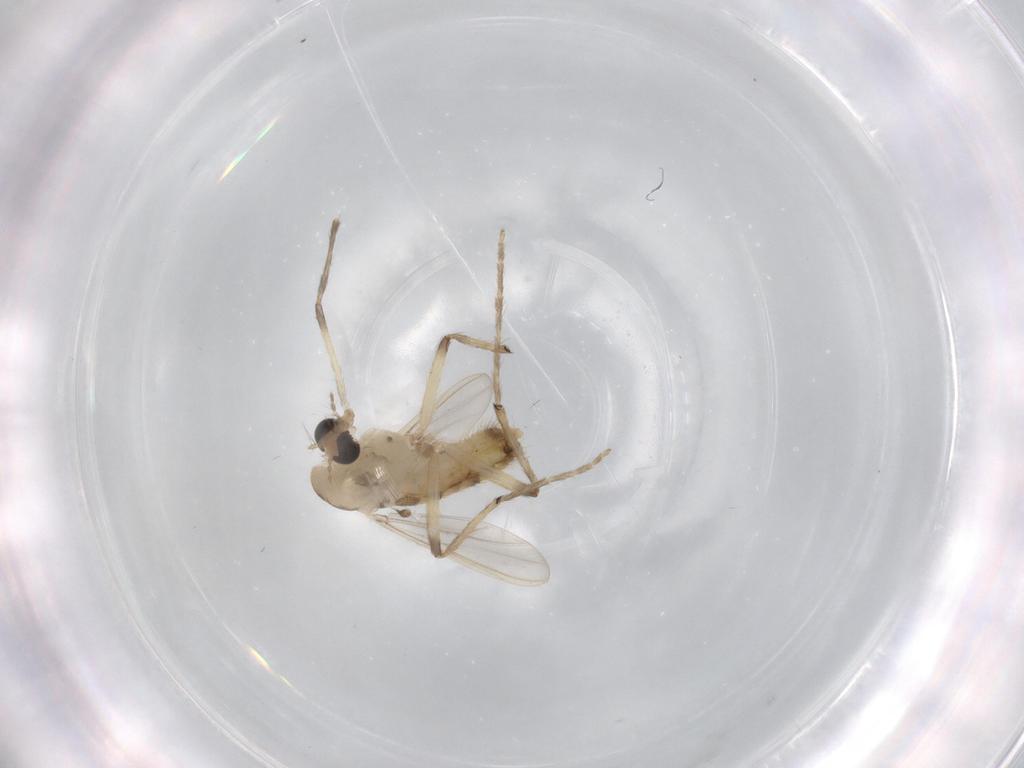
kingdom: Animalia
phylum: Arthropoda
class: Insecta
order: Diptera
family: Chironomidae
